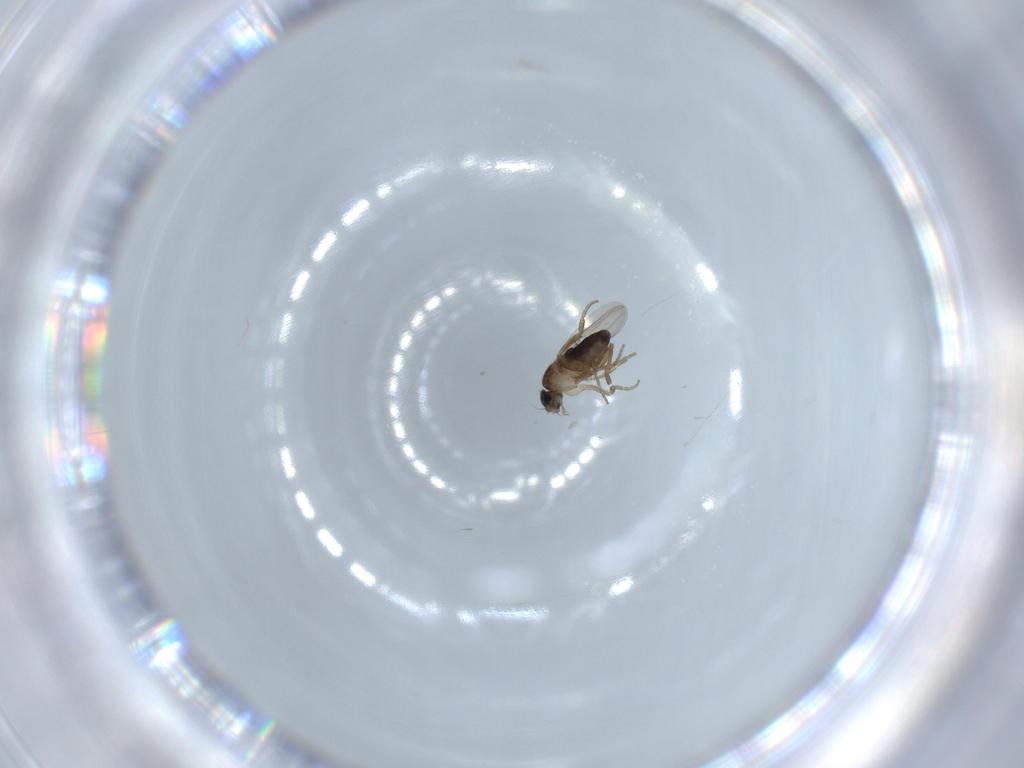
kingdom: Animalia
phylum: Arthropoda
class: Insecta
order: Diptera
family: Phoridae
